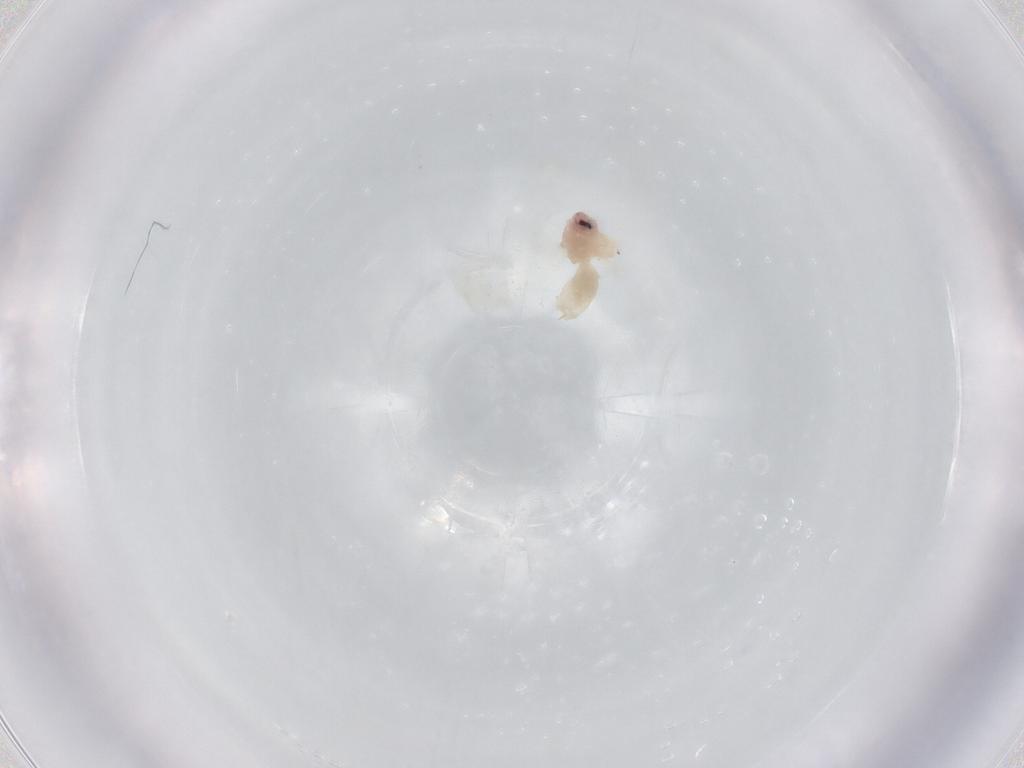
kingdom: Animalia
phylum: Arthropoda
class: Insecta
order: Hemiptera
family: Aleyrodidae
